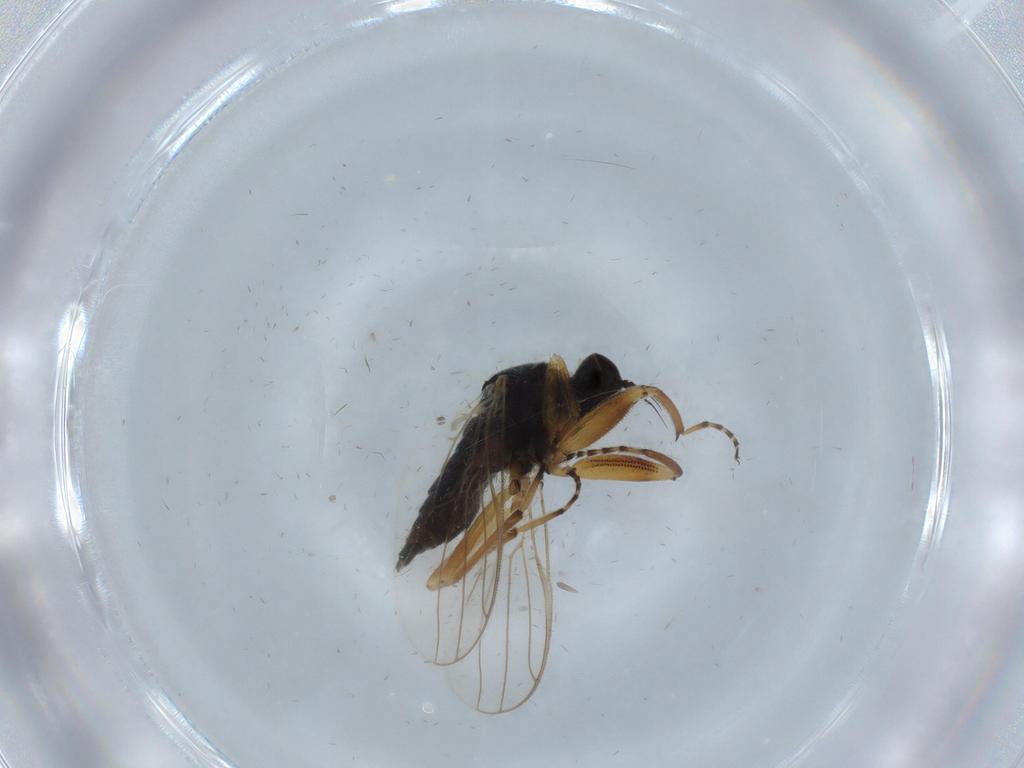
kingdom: Animalia
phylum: Arthropoda
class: Insecta
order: Diptera
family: Hybotidae
